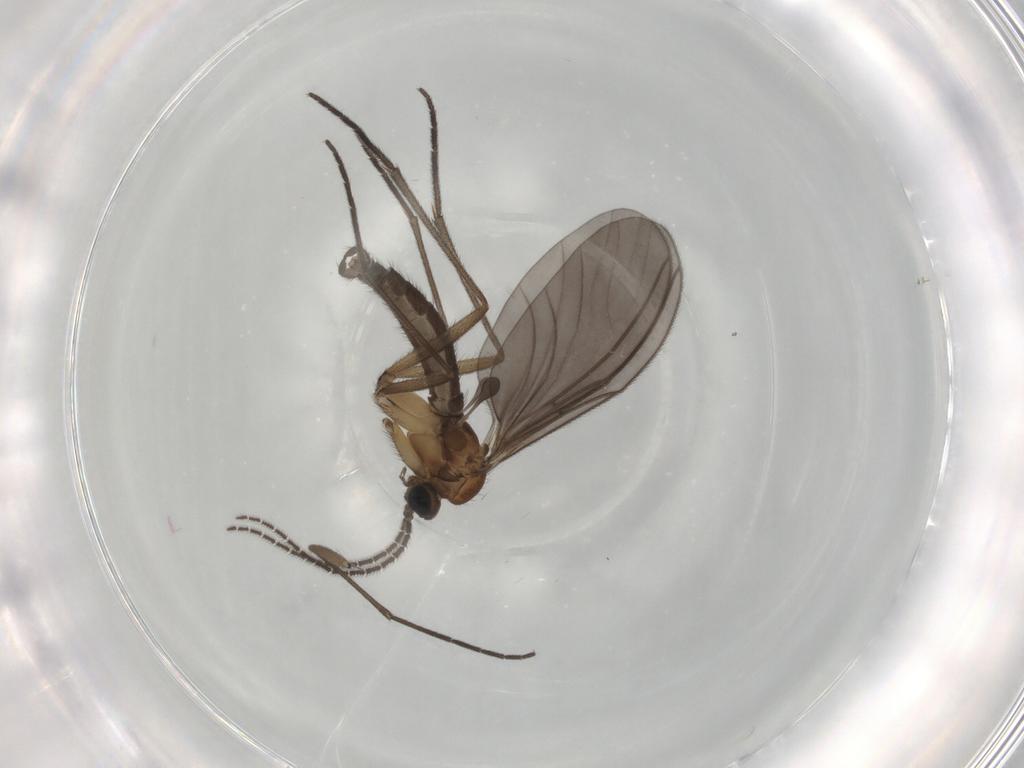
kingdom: Animalia
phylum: Arthropoda
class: Insecta
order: Diptera
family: Sciaridae
